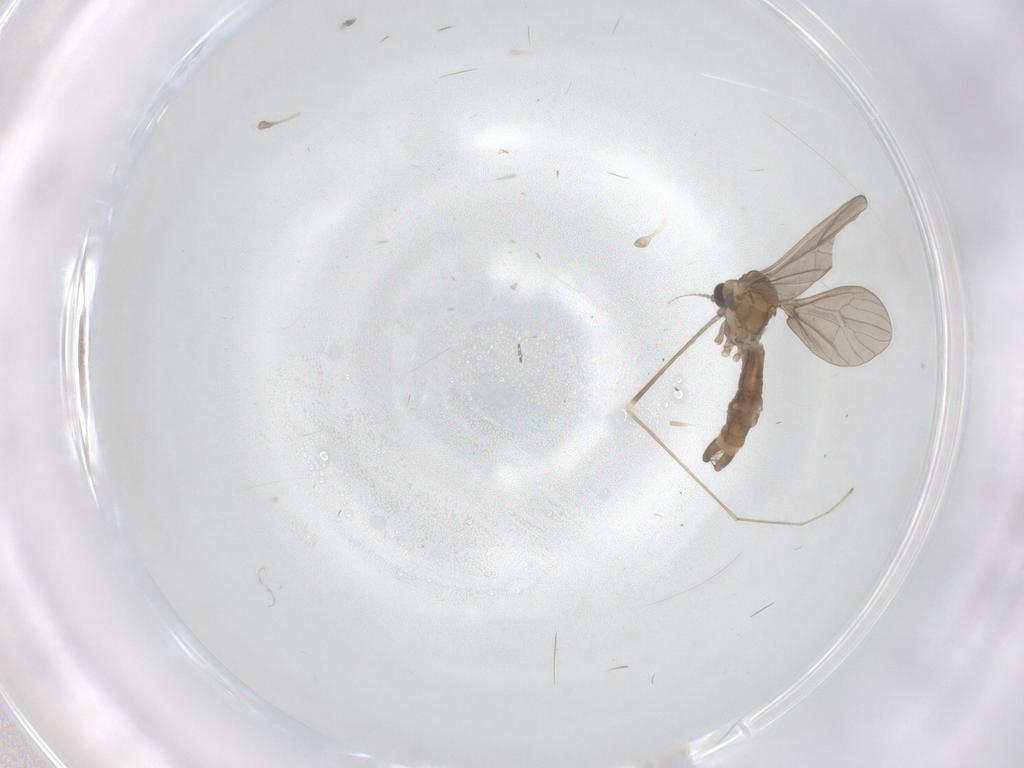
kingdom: Animalia
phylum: Arthropoda
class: Insecta
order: Diptera
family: Limoniidae
